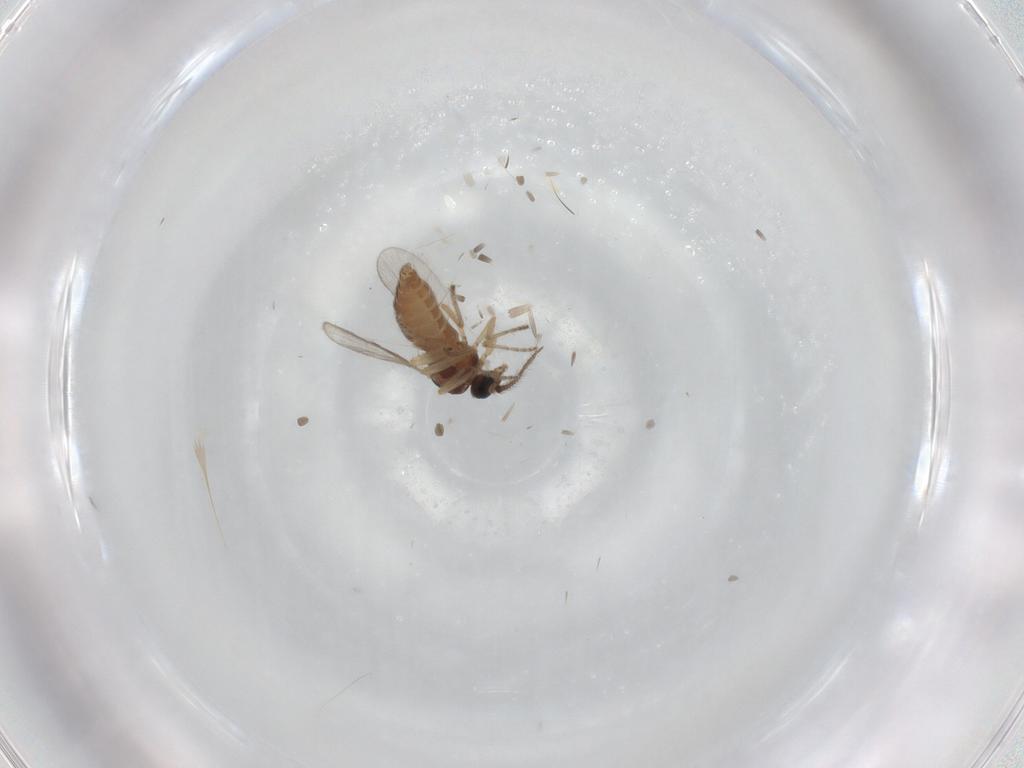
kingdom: Animalia
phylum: Arthropoda
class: Insecta
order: Diptera
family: Ceratopogonidae
